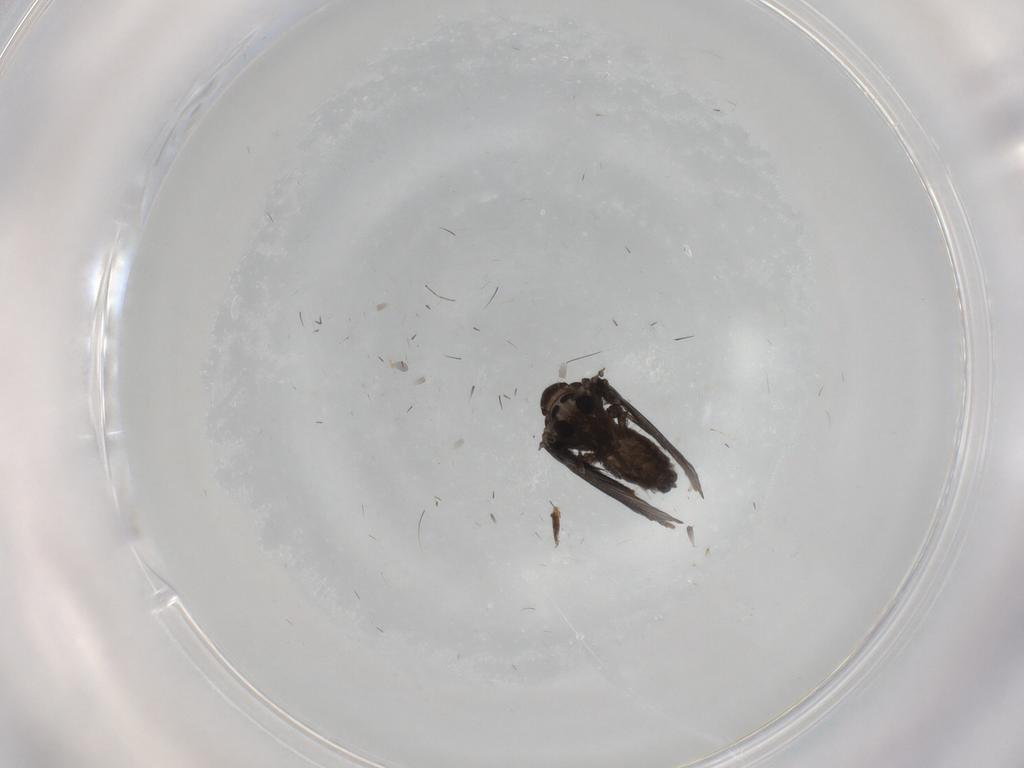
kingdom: Animalia
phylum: Arthropoda
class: Insecta
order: Diptera
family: Psychodidae
